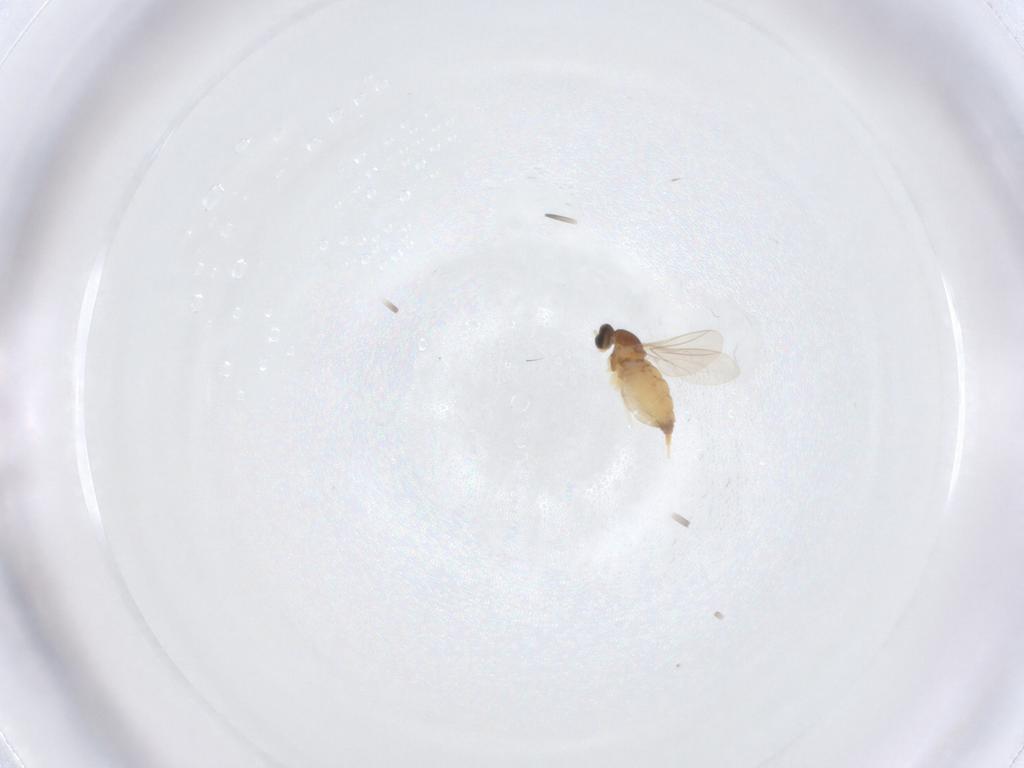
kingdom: Animalia
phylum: Arthropoda
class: Insecta
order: Diptera
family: Cecidomyiidae
